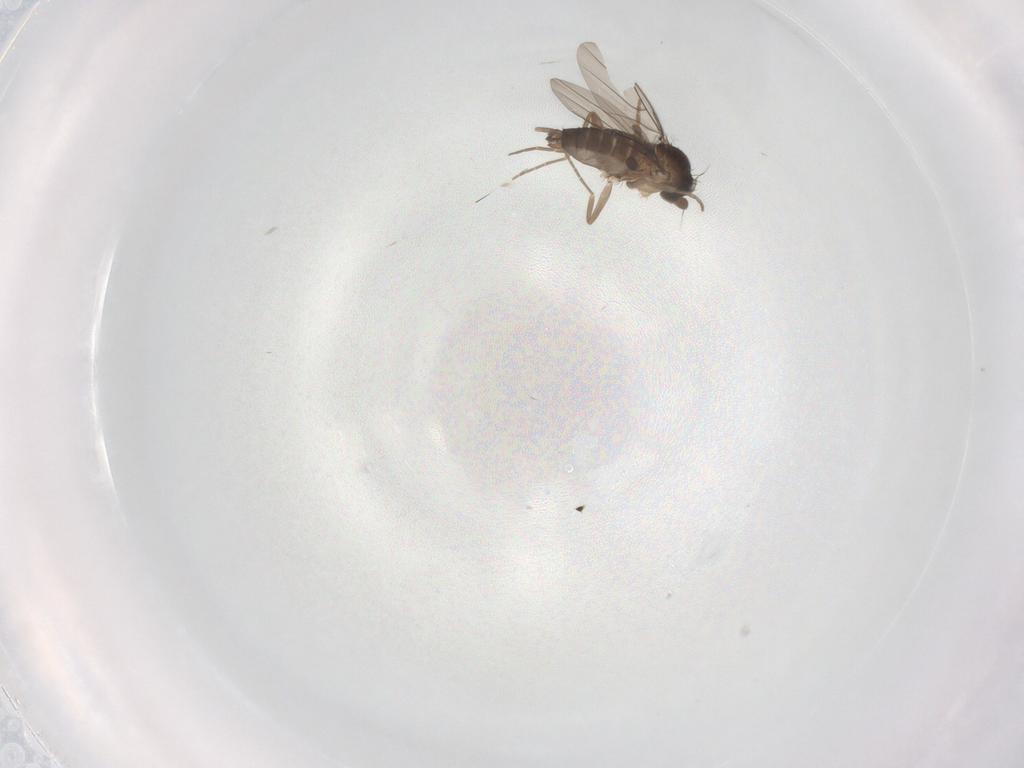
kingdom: Animalia
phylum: Arthropoda
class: Insecta
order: Diptera
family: Phoridae
